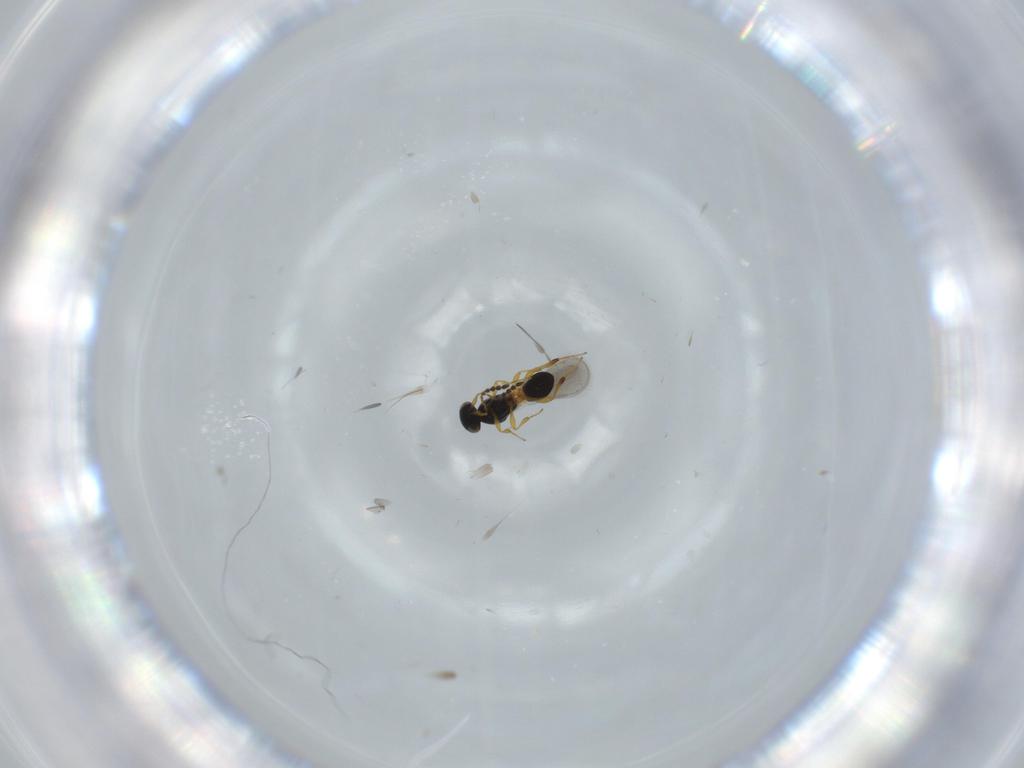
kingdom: Animalia
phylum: Arthropoda
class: Insecta
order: Hymenoptera
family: Platygastridae
